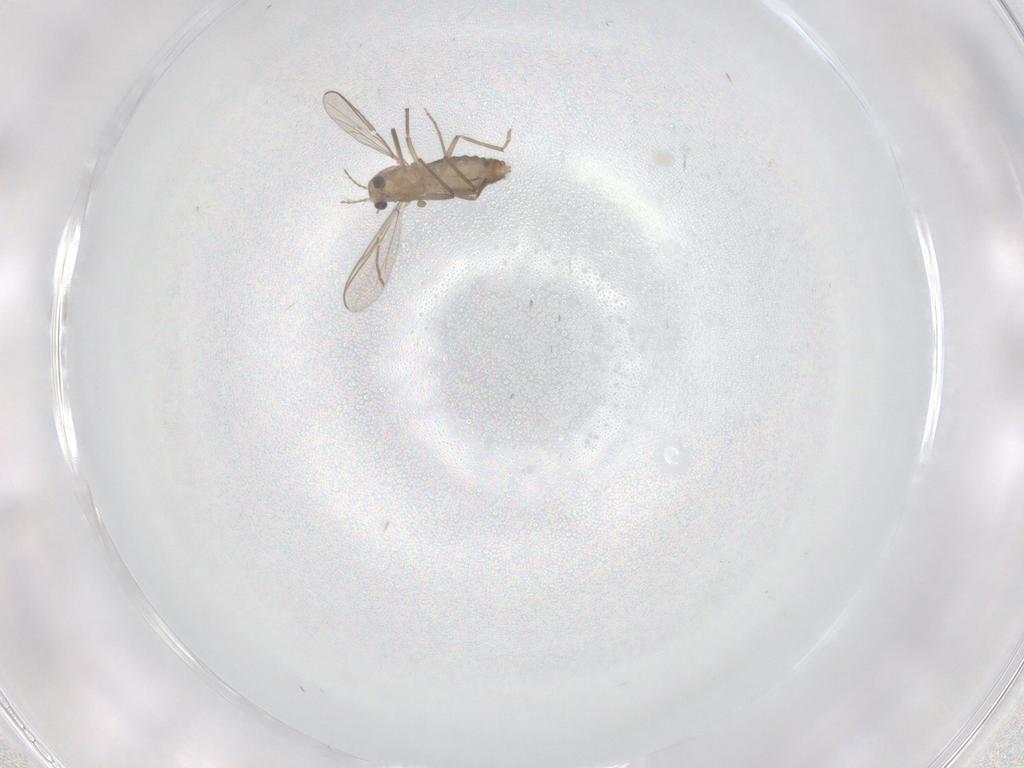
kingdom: Animalia
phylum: Arthropoda
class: Insecta
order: Diptera
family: Chironomidae
